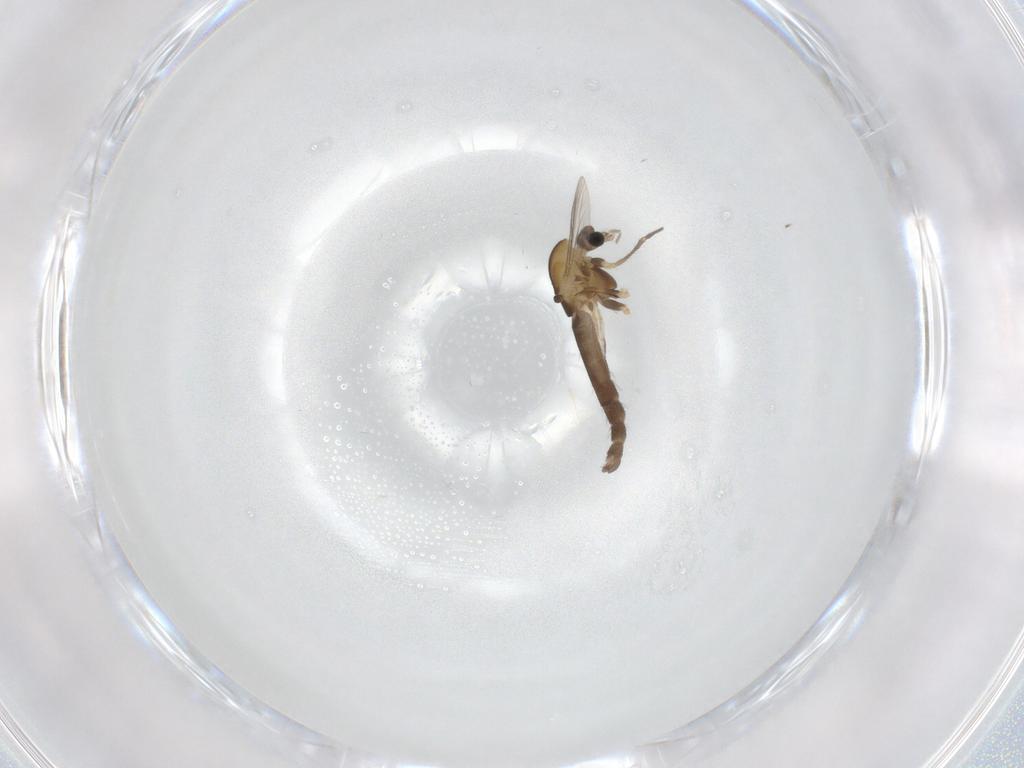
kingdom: Animalia
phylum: Arthropoda
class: Insecta
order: Diptera
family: Chironomidae
